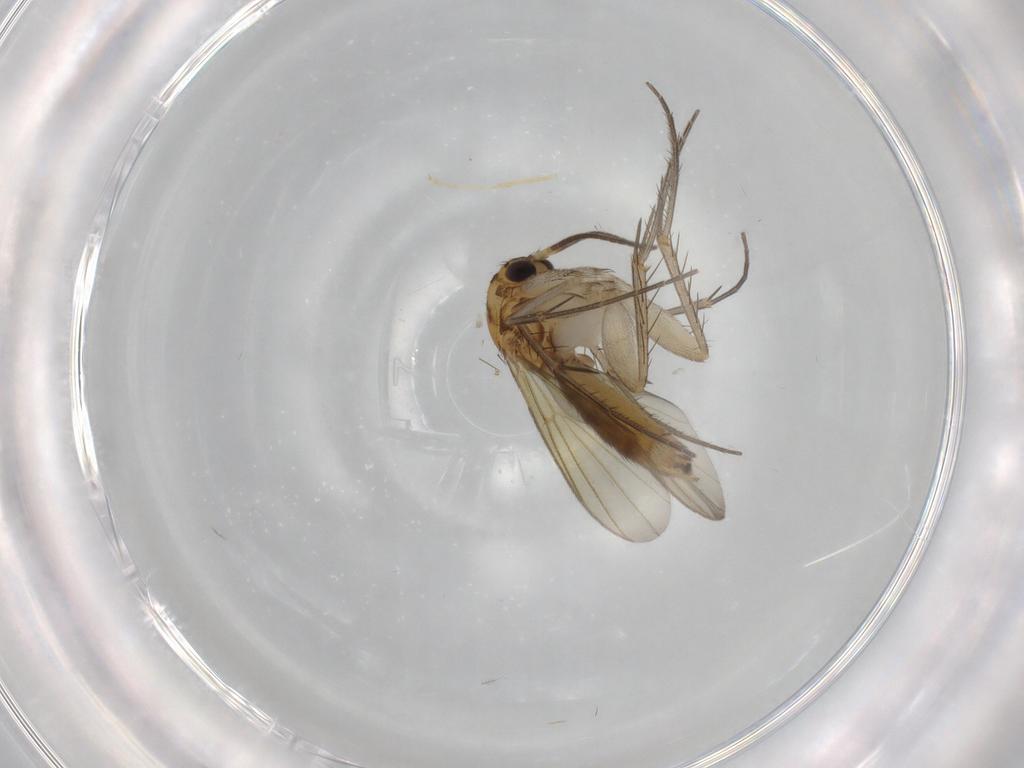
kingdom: Animalia
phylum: Arthropoda
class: Insecta
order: Diptera
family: Mycetophilidae
